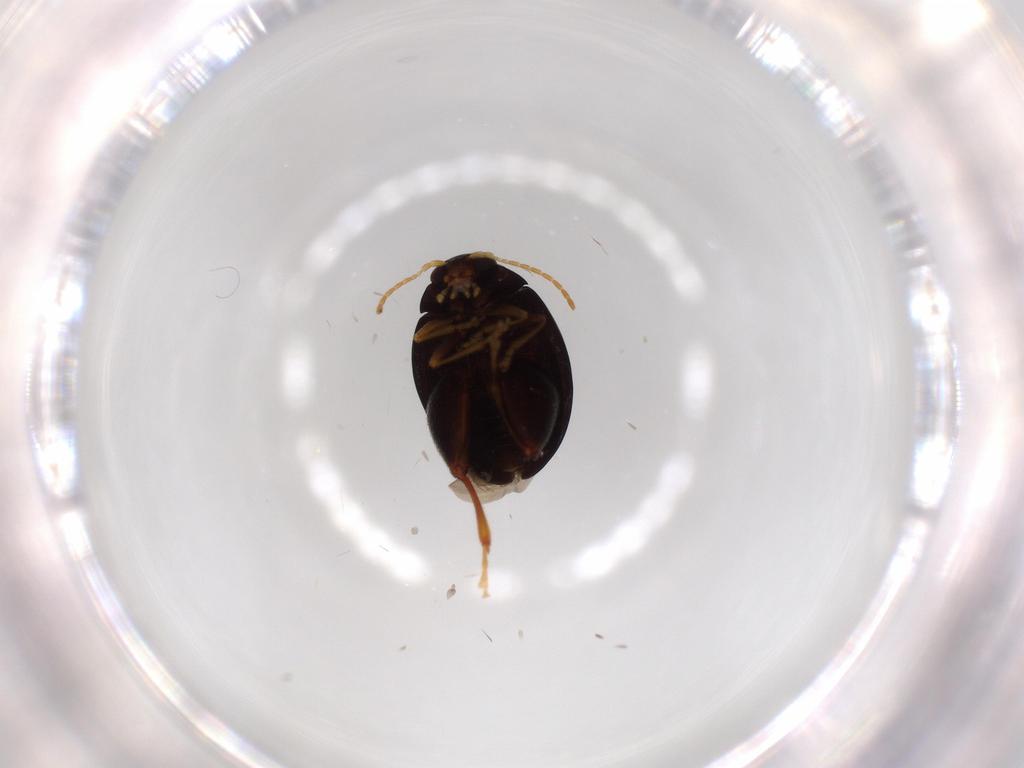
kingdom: Animalia
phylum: Arthropoda
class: Insecta
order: Coleoptera
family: Chrysomelidae
